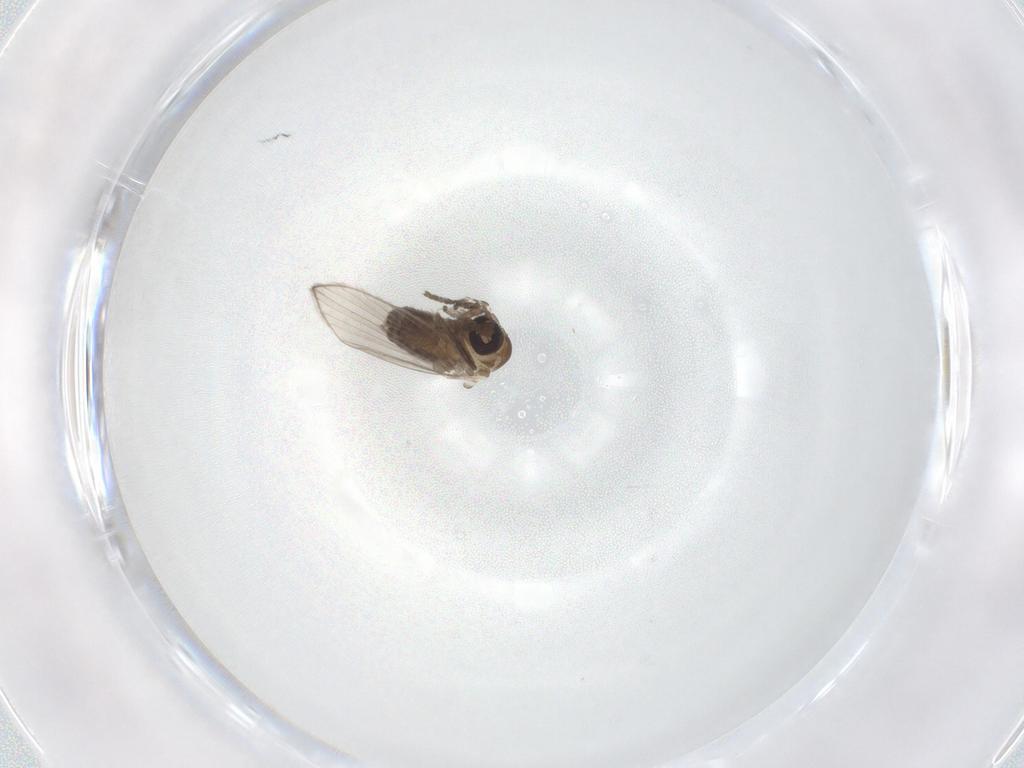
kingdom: Animalia
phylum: Arthropoda
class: Insecta
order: Diptera
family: Psychodidae
